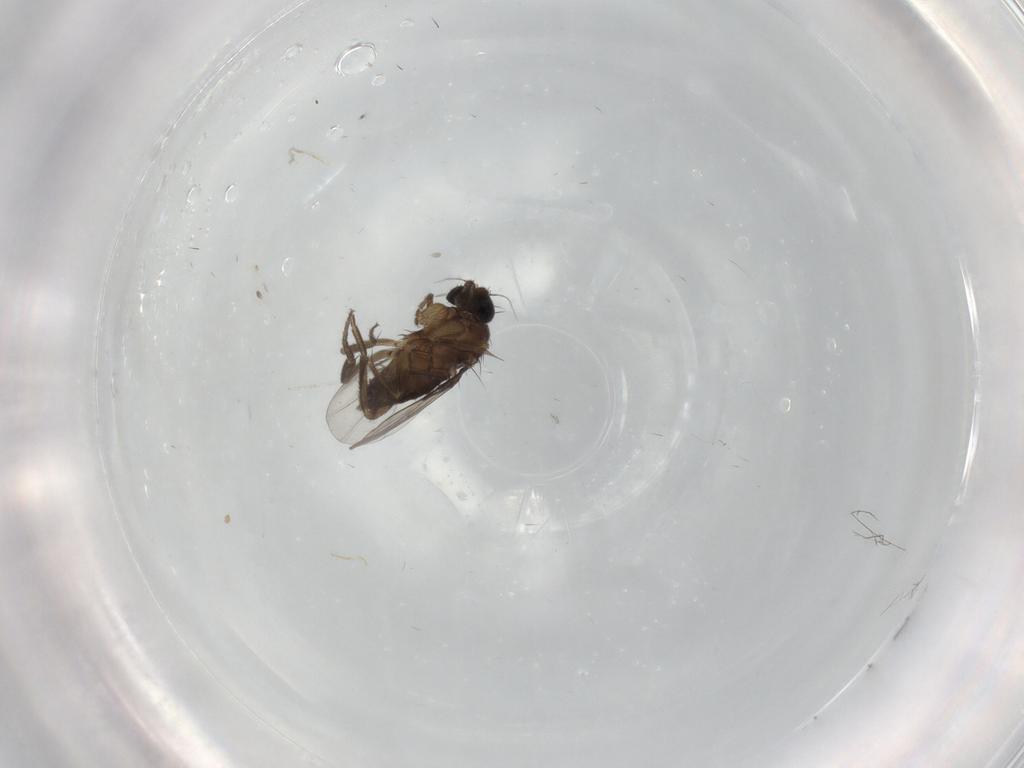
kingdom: Animalia
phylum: Arthropoda
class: Insecta
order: Diptera
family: Phoridae
